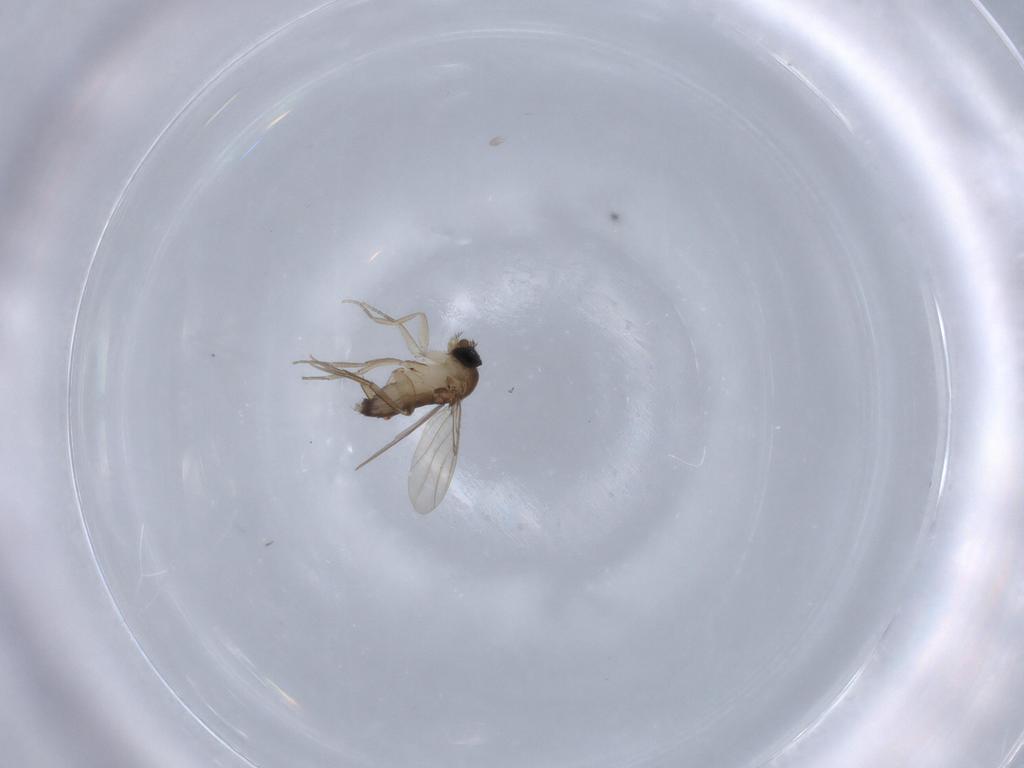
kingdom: Animalia
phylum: Arthropoda
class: Insecta
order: Diptera
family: Phoridae
